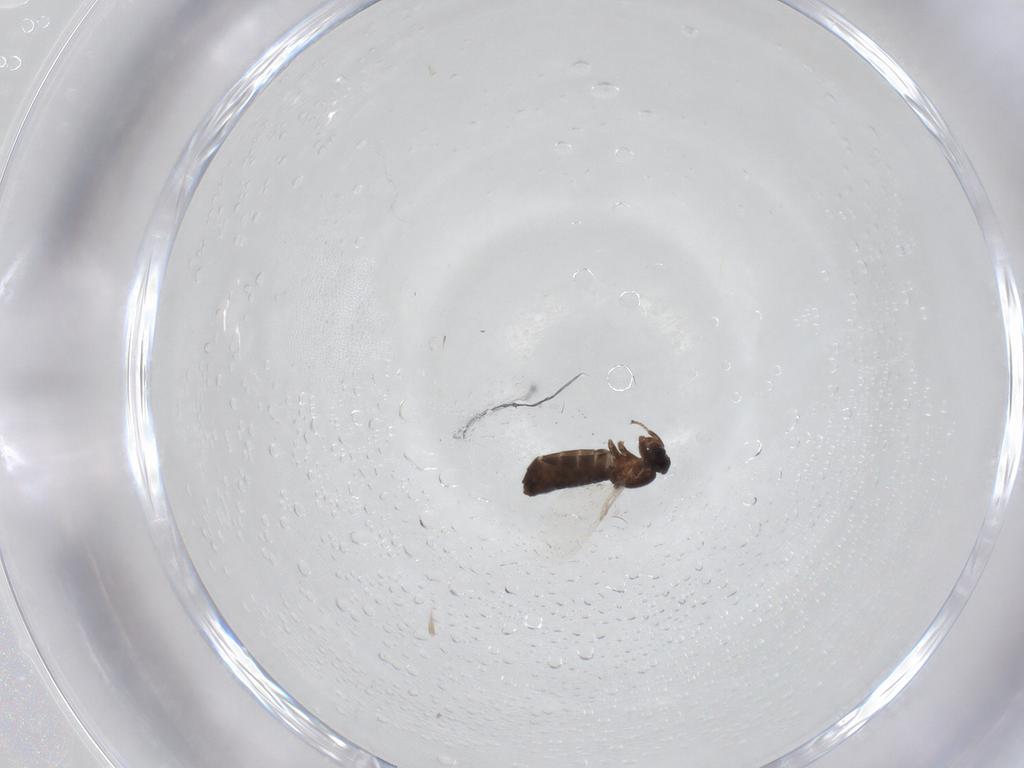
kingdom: Animalia
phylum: Arthropoda
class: Insecta
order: Diptera
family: Scatopsidae
